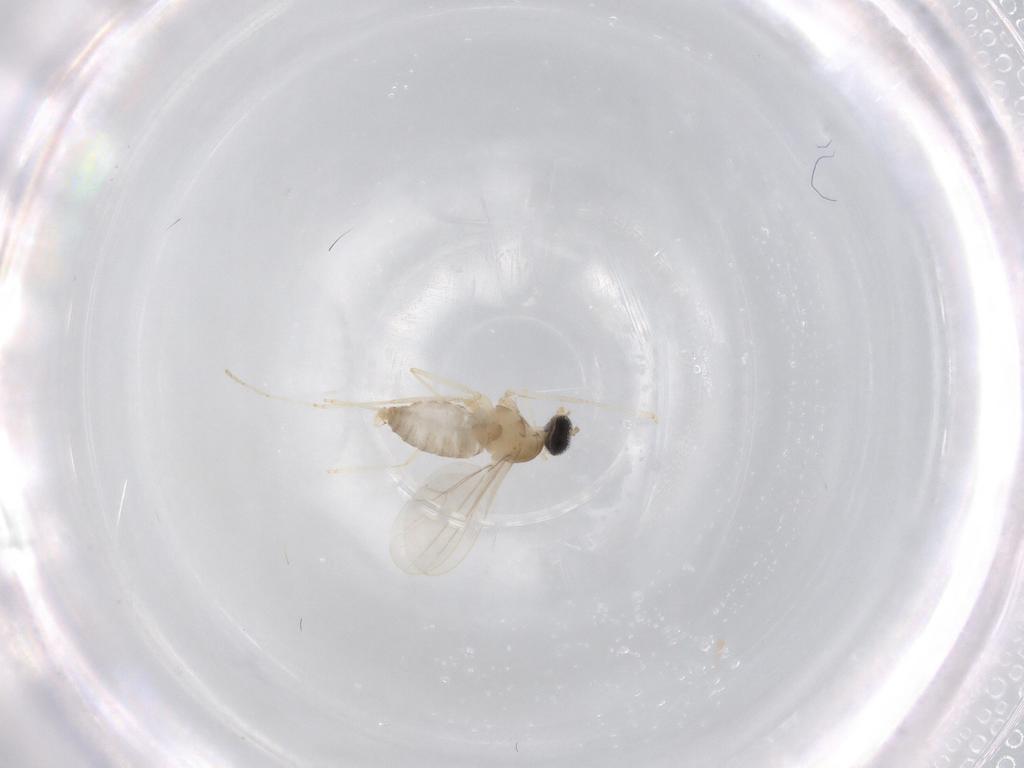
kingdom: Animalia
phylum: Arthropoda
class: Insecta
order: Diptera
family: Cecidomyiidae
